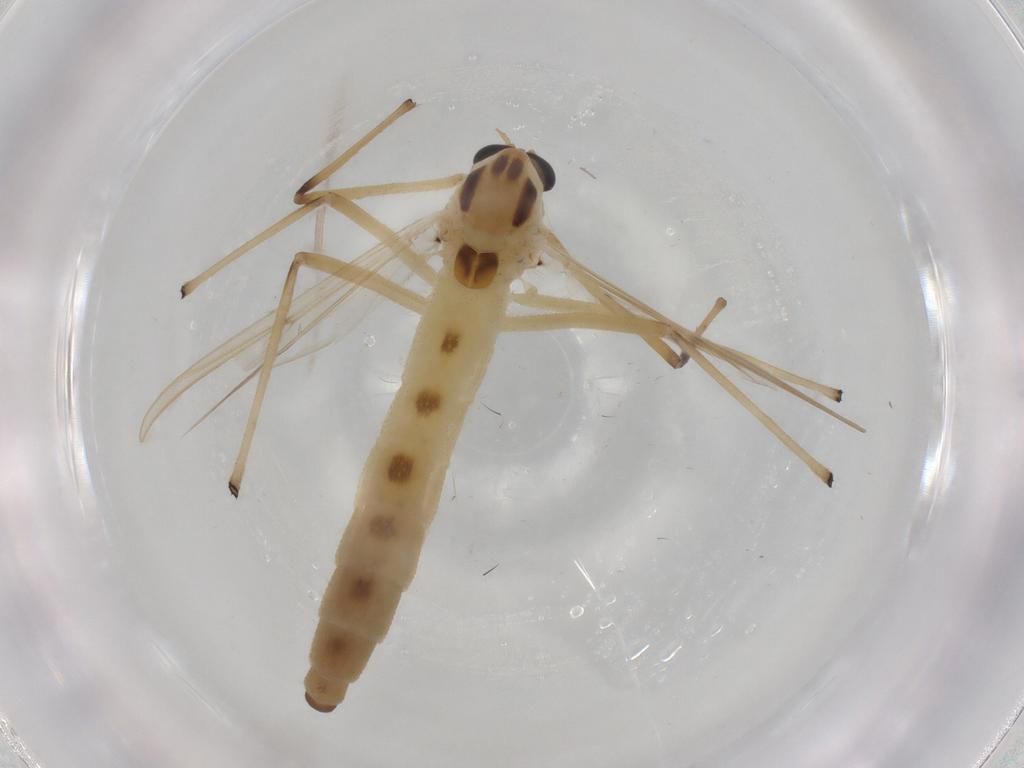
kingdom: Animalia
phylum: Arthropoda
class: Insecta
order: Diptera
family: Chironomidae
